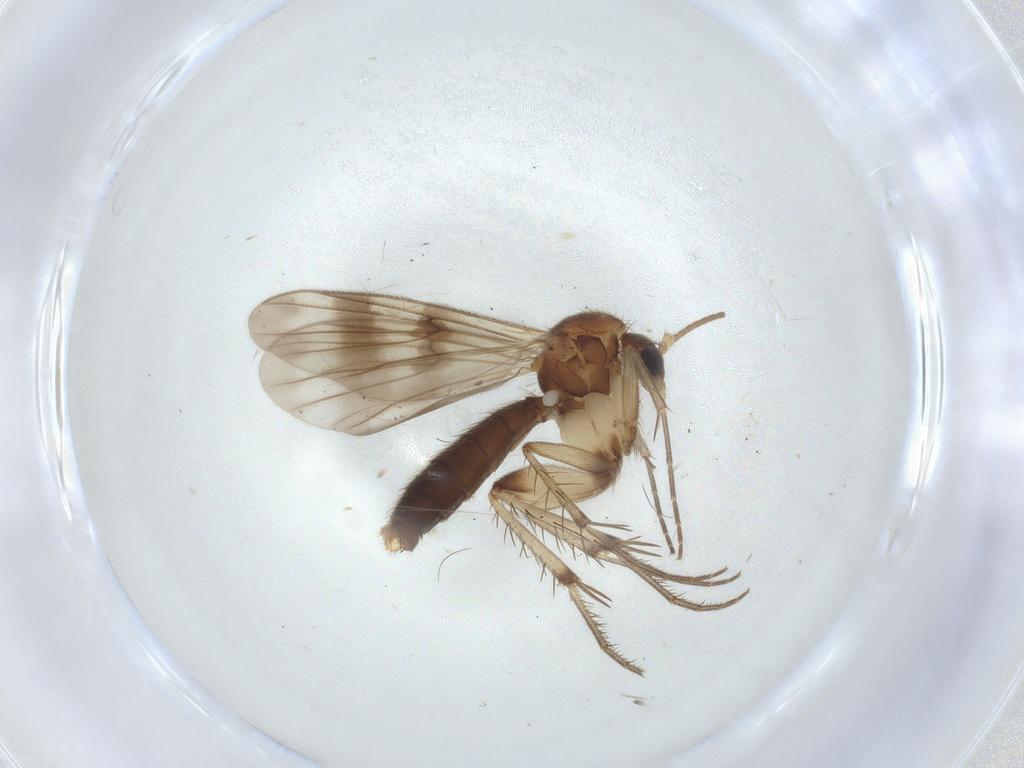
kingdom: Animalia
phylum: Arthropoda
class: Insecta
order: Diptera
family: Mycetophilidae
